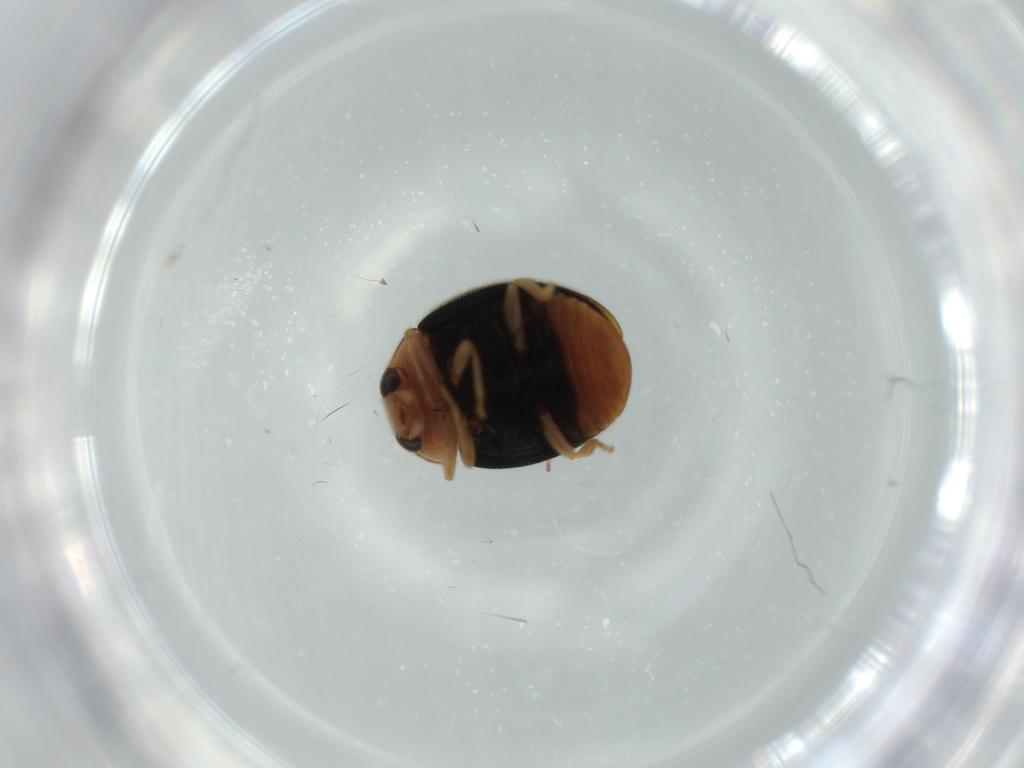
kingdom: Animalia
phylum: Arthropoda
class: Insecta
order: Coleoptera
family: Coccinellidae
